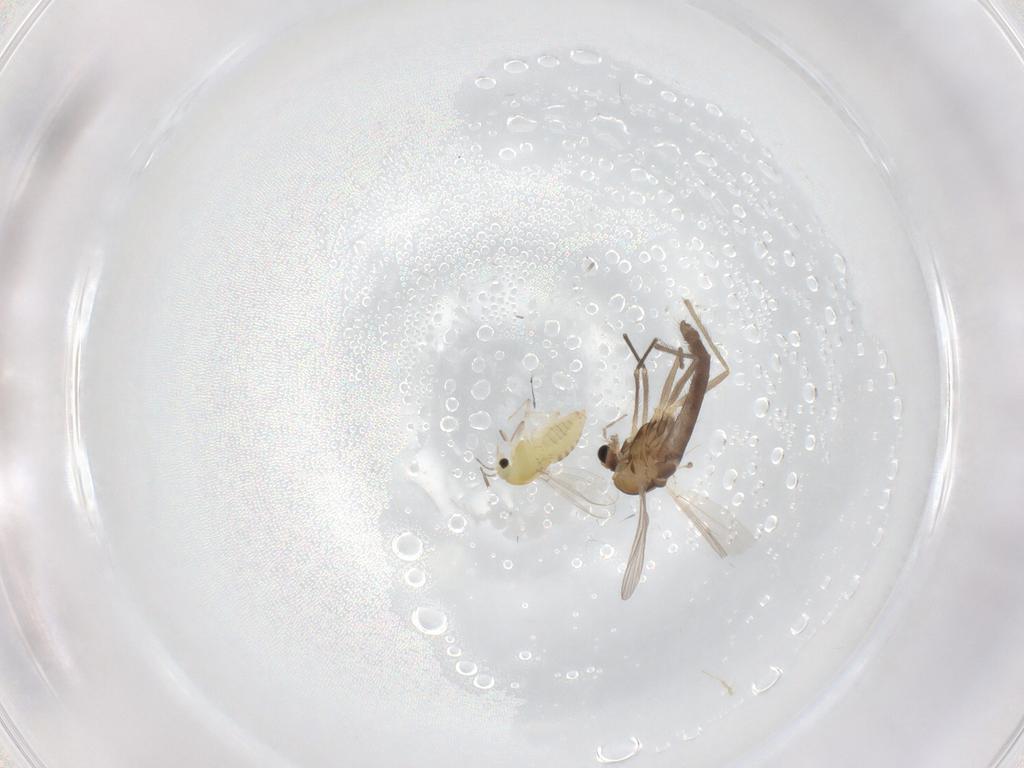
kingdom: Animalia
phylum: Arthropoda
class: Insecta
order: Diptera
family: Chironomidae
